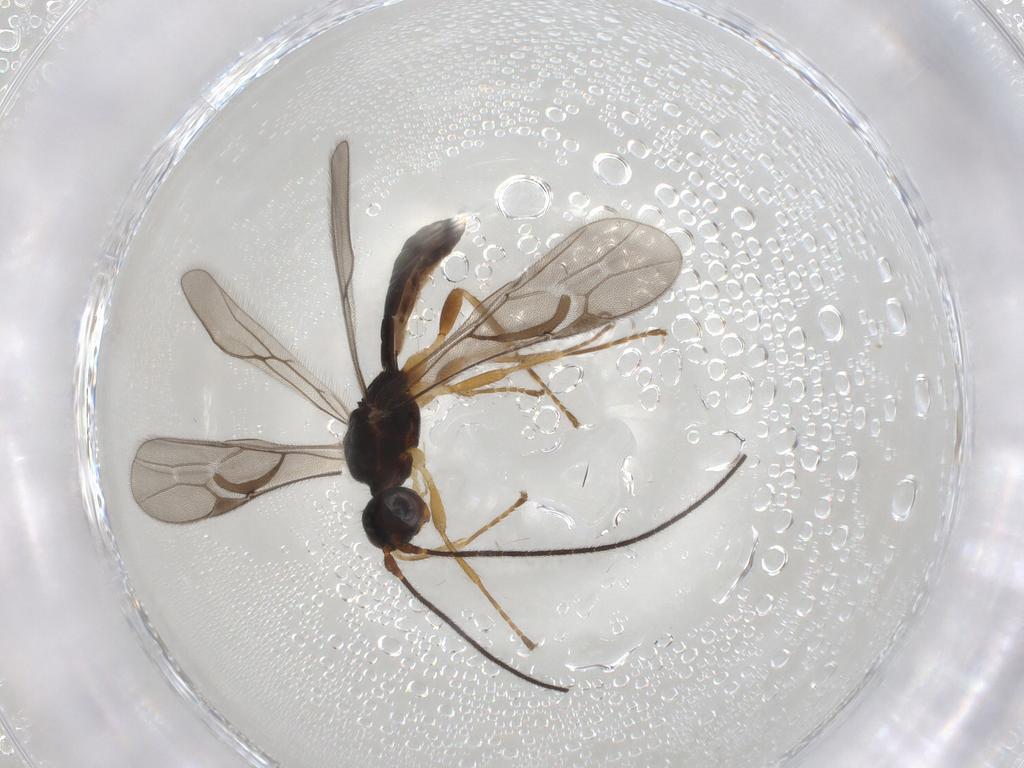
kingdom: Animalia
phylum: Arthropoda
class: Insecta
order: Hymenoptera
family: Braconidae
